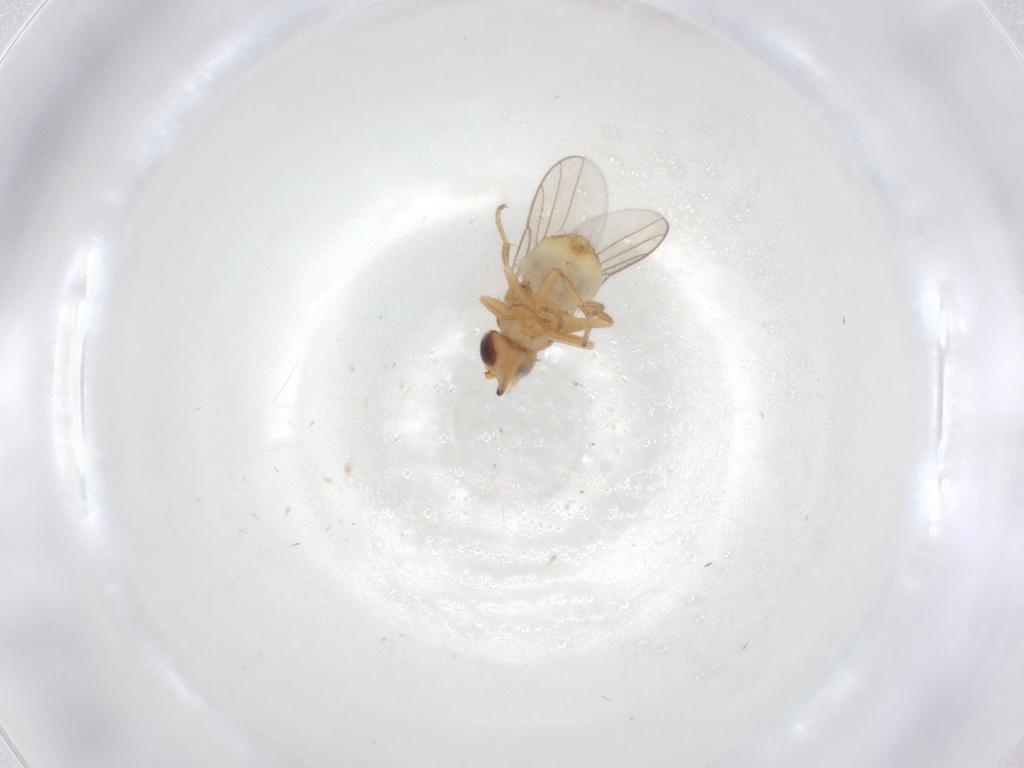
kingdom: Animalia
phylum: Arthropoda
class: Insecta
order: Diptera
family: Chloropidae
